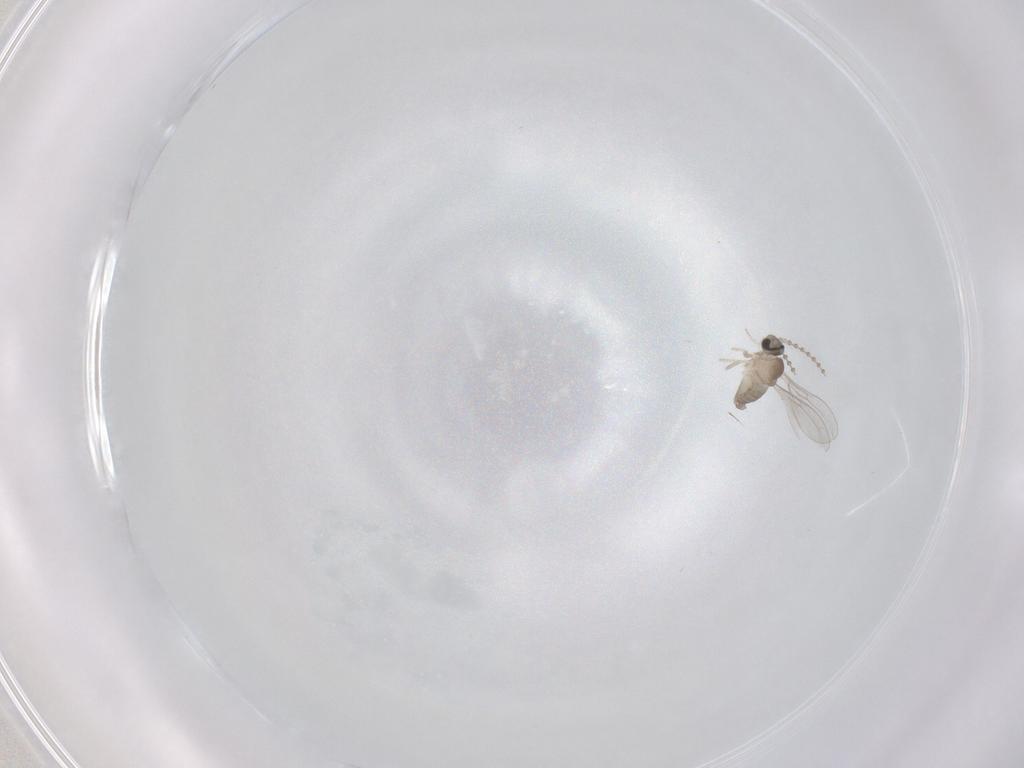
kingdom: Animalia
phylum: Arthropoda
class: Insecta
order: Diptera
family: Cecidomyiidae
